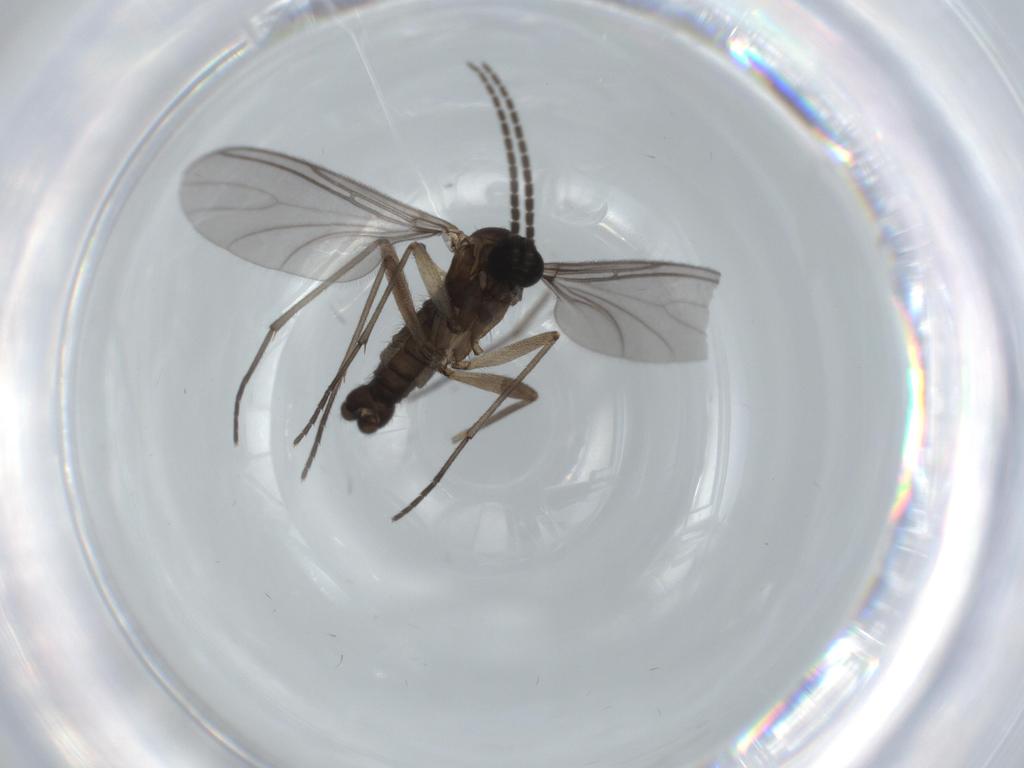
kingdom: Animalia
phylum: Arthropoda
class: Insecta
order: Diptera
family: Sciaridae
